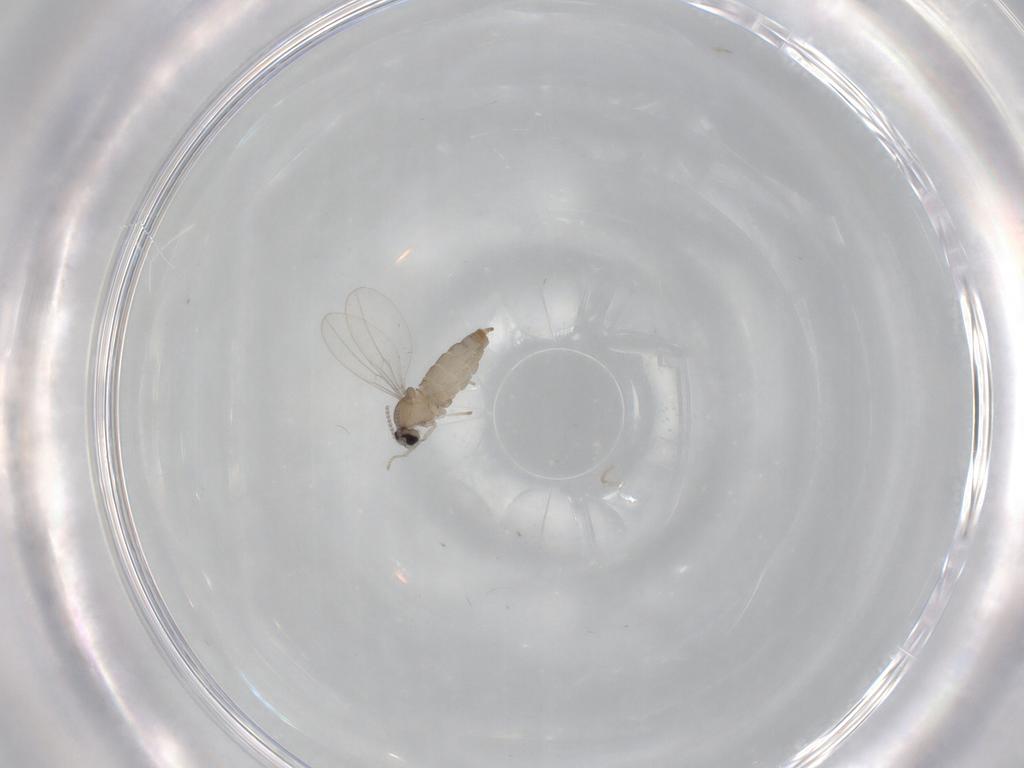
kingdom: Animalia
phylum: Arthropoda
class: Insecta
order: Diptera
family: Cecidomyiidae
